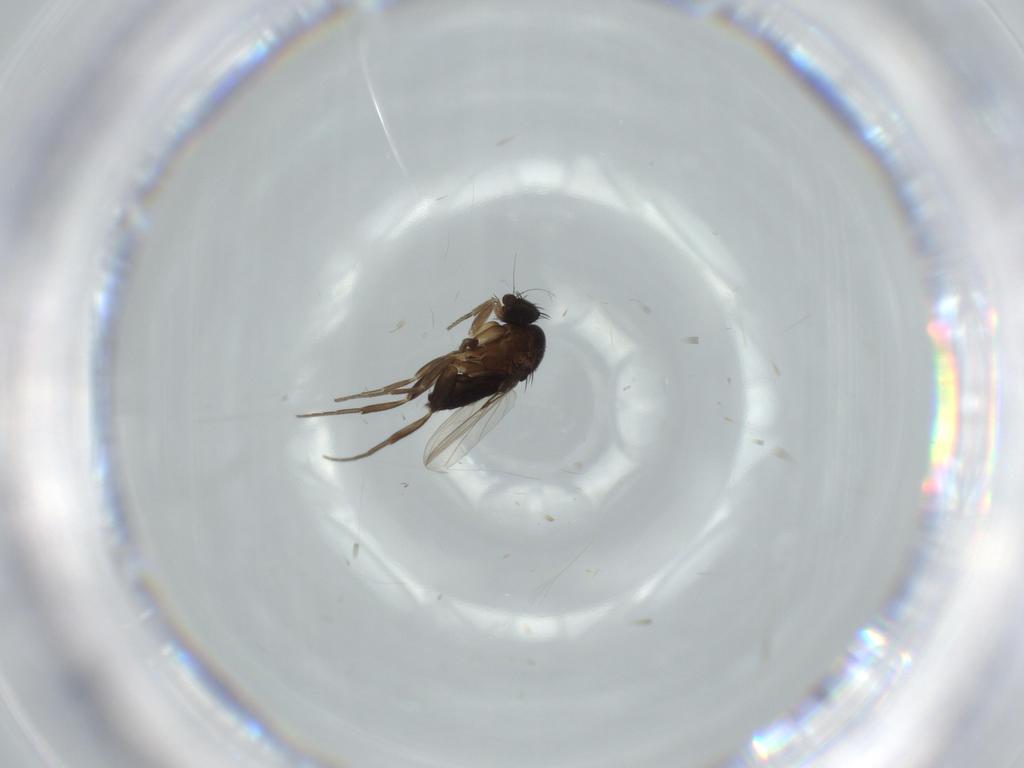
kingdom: Animalia
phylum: Arthropoda
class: Insecta
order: Diptera
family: Phoridae
